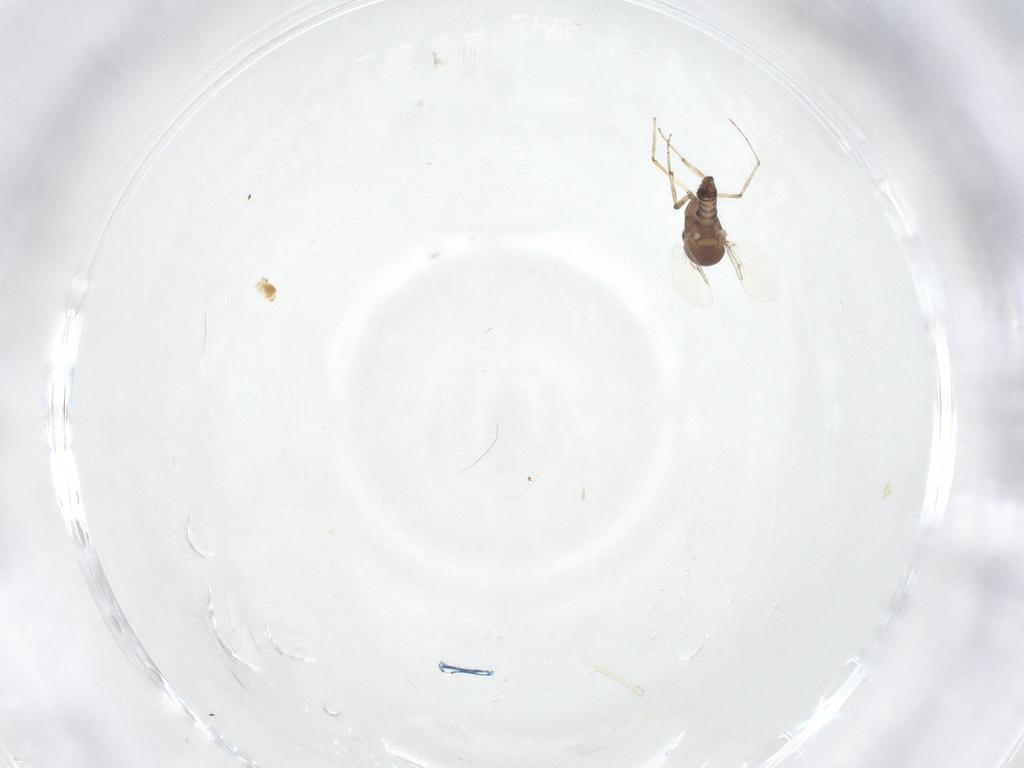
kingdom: Animalia
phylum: Arthropoda
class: Insecta
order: Diptera
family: Ceratopogonidae
